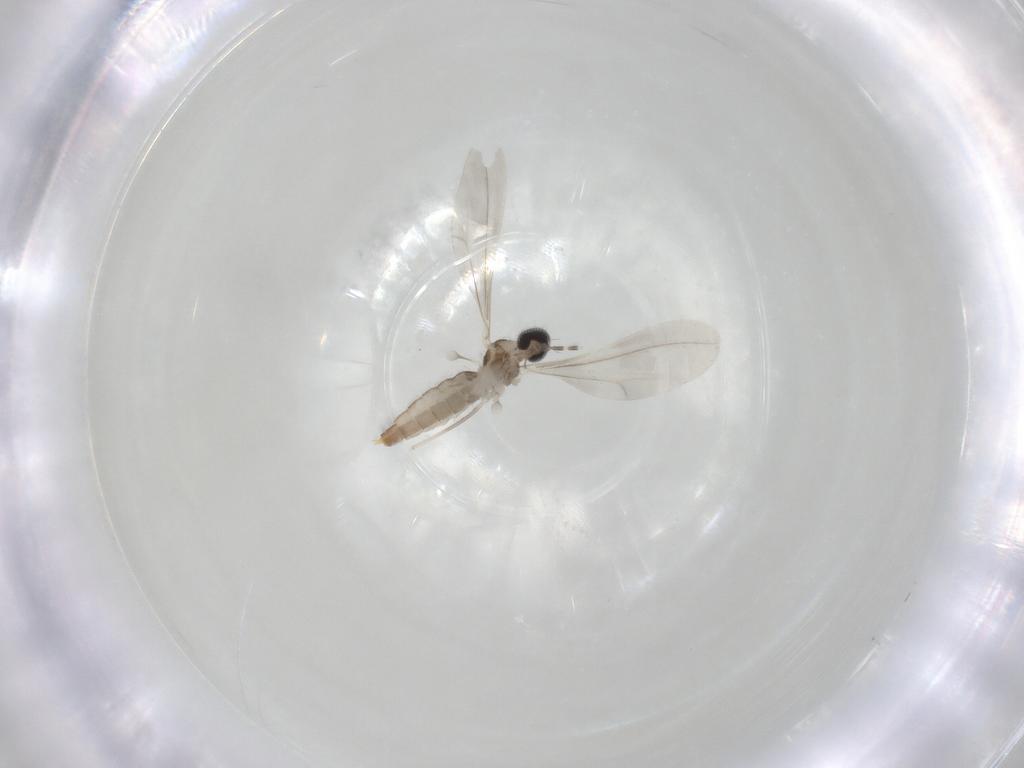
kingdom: Animalia
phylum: Arthropoda
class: Insecta
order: Diptera
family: Cecidomyiidae
